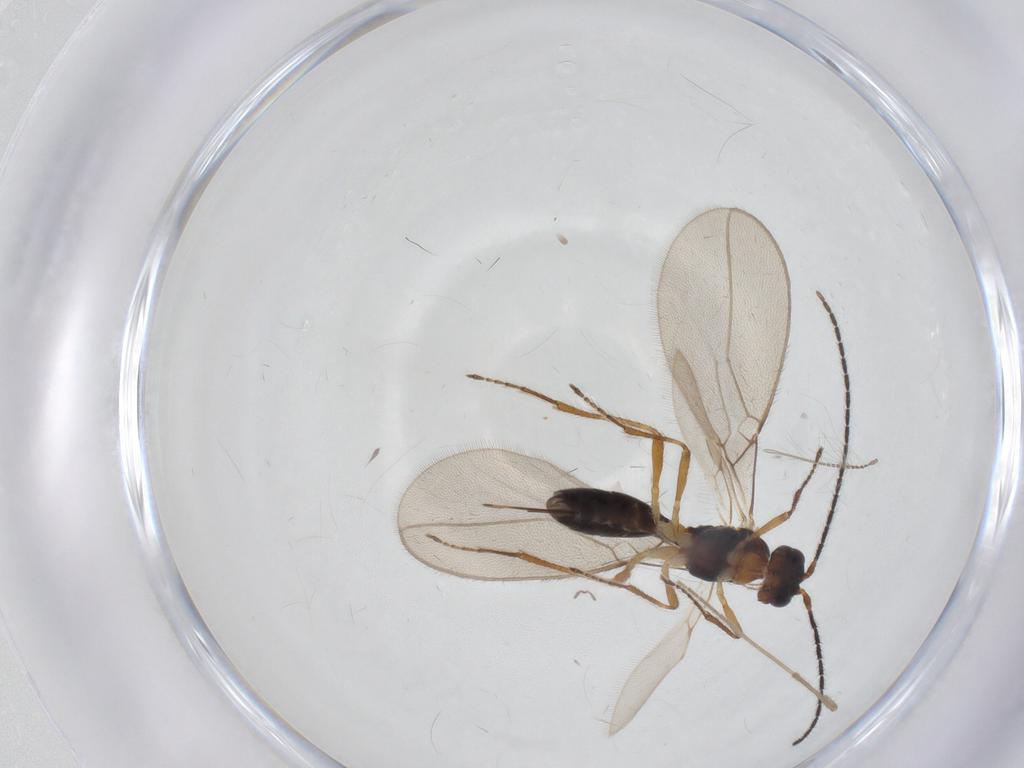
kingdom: Animalia
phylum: Arthropoda
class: Insecta
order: Hymenoptera
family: Braconidae
